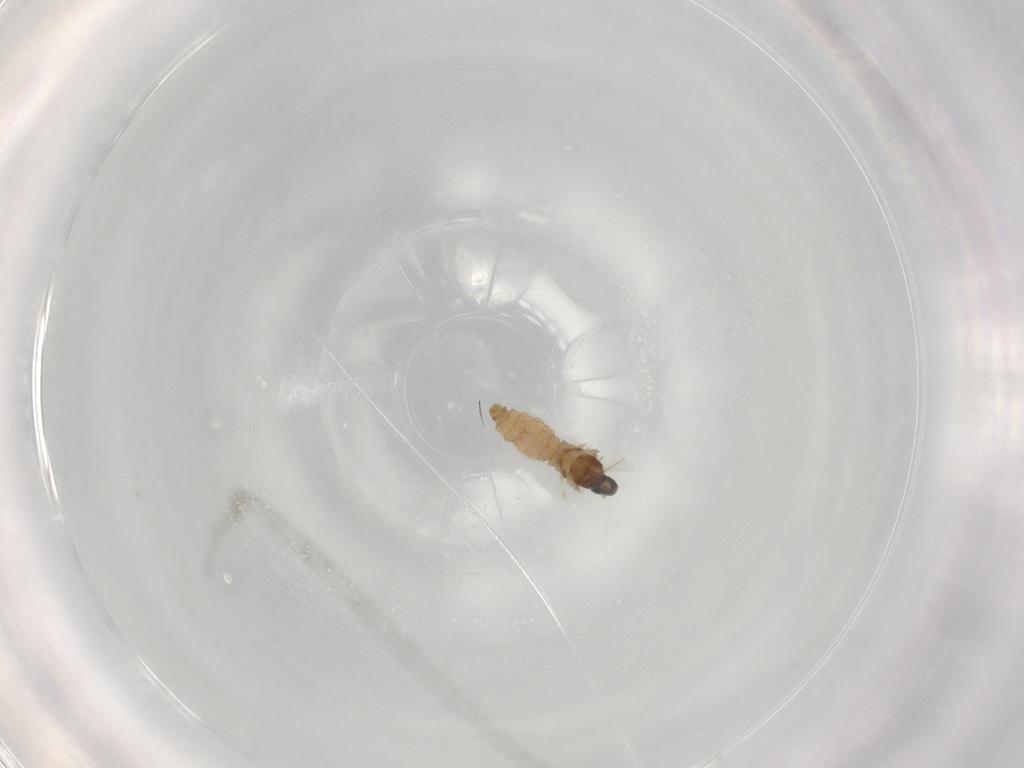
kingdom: Animalia
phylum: Arthropoda
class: Insecta
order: Diptera
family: Cecidomyiidae
